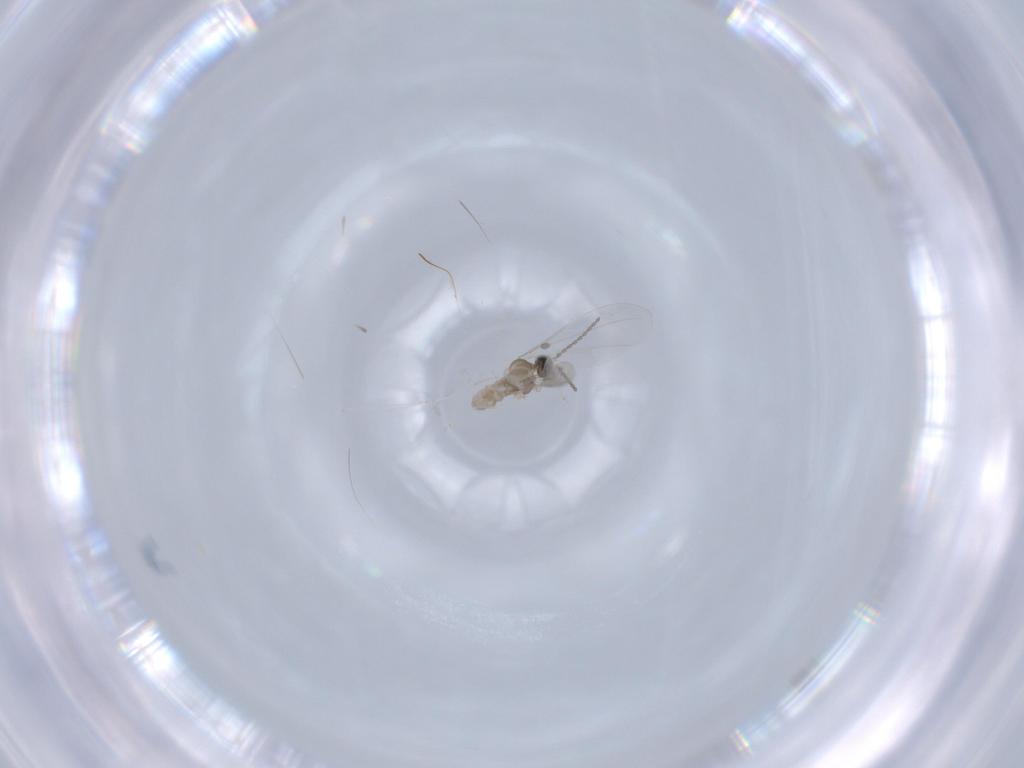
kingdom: Animalia
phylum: Arthropoda
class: Insecta
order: Diptera
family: Cecidomyiidae
